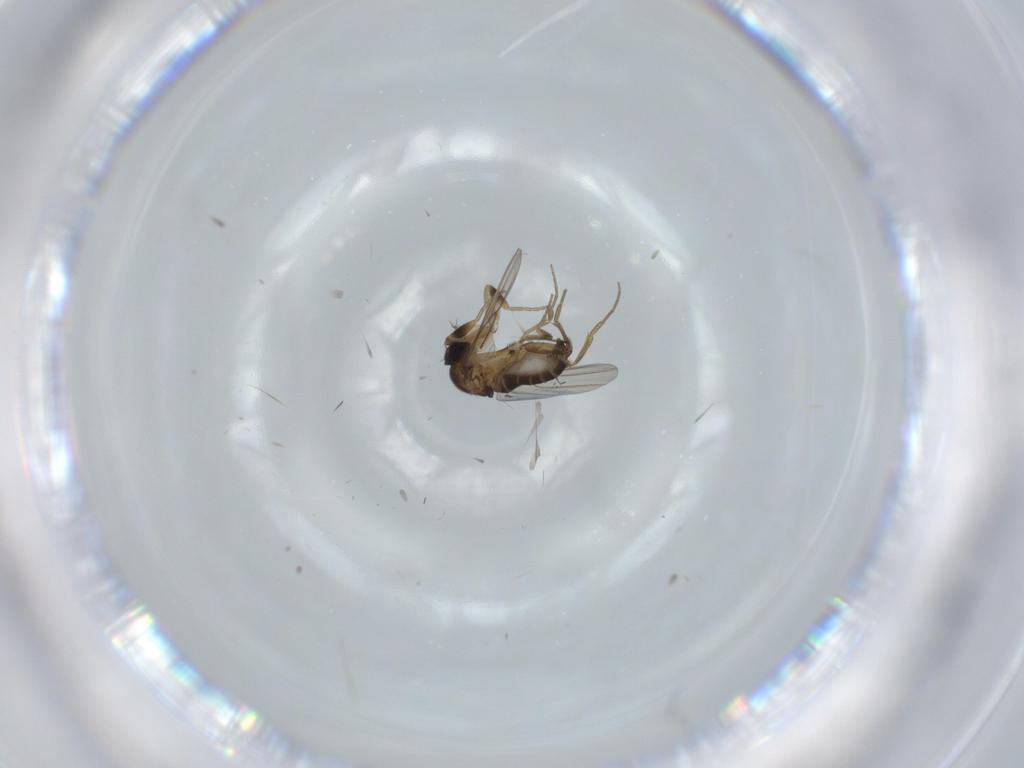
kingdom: Animalia
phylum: Arthropoda
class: Insecta
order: Diptera
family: Phoridae
